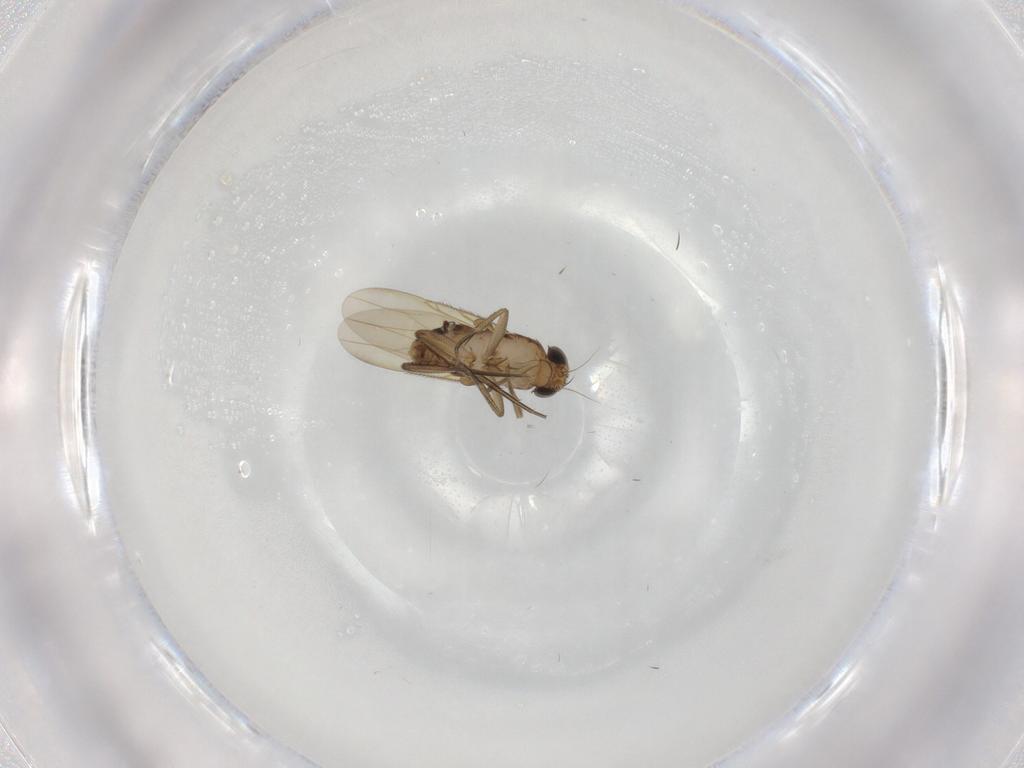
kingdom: Animalia
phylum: Arthropoda
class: Insecta
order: Diptera
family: Phoridae
